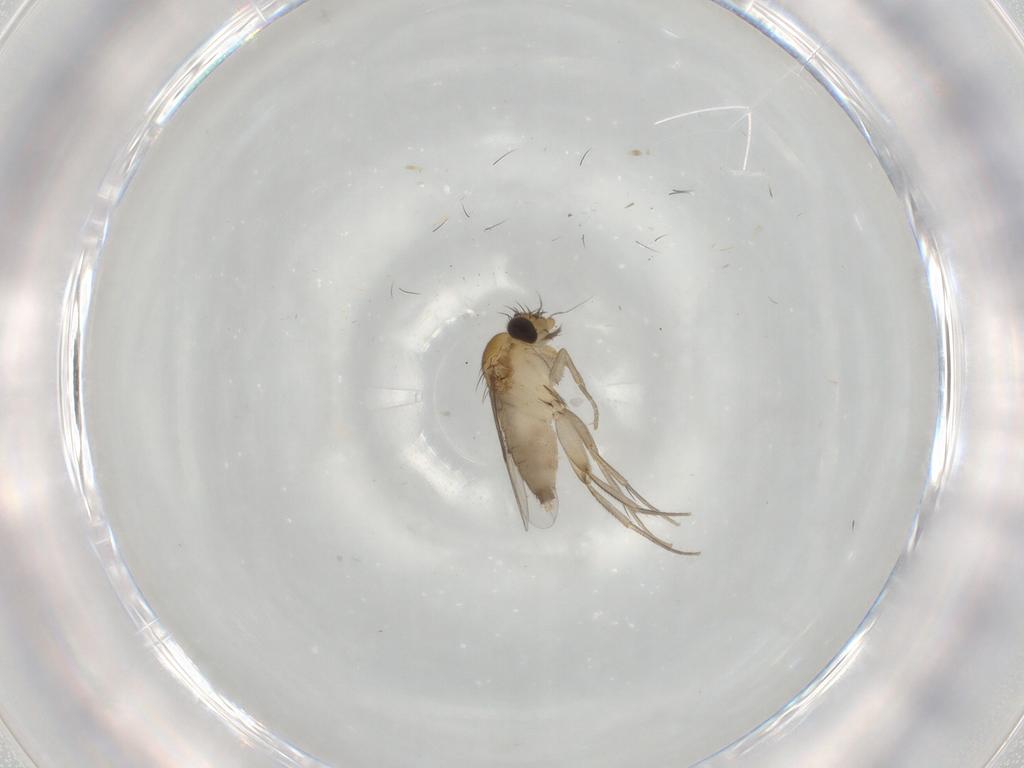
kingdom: Animalia
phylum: Arthropoda
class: Insecta
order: Diptera
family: Phoridae
